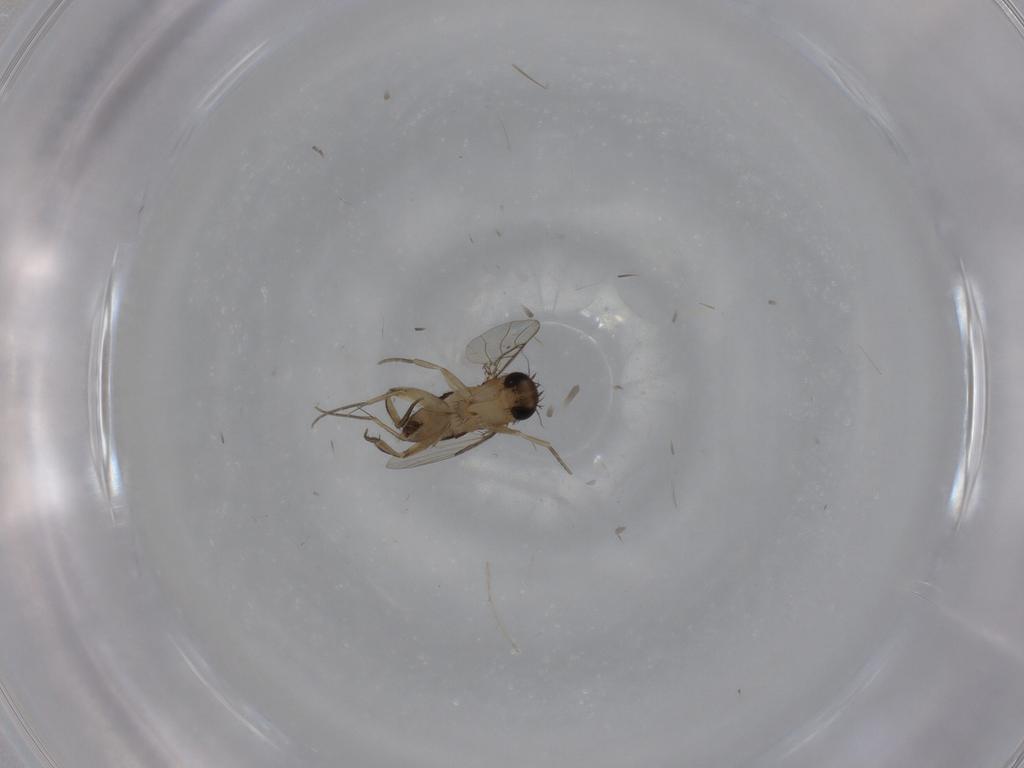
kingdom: Animalia
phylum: Arthropoda
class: Insecta
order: Diptera
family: Phoridae
